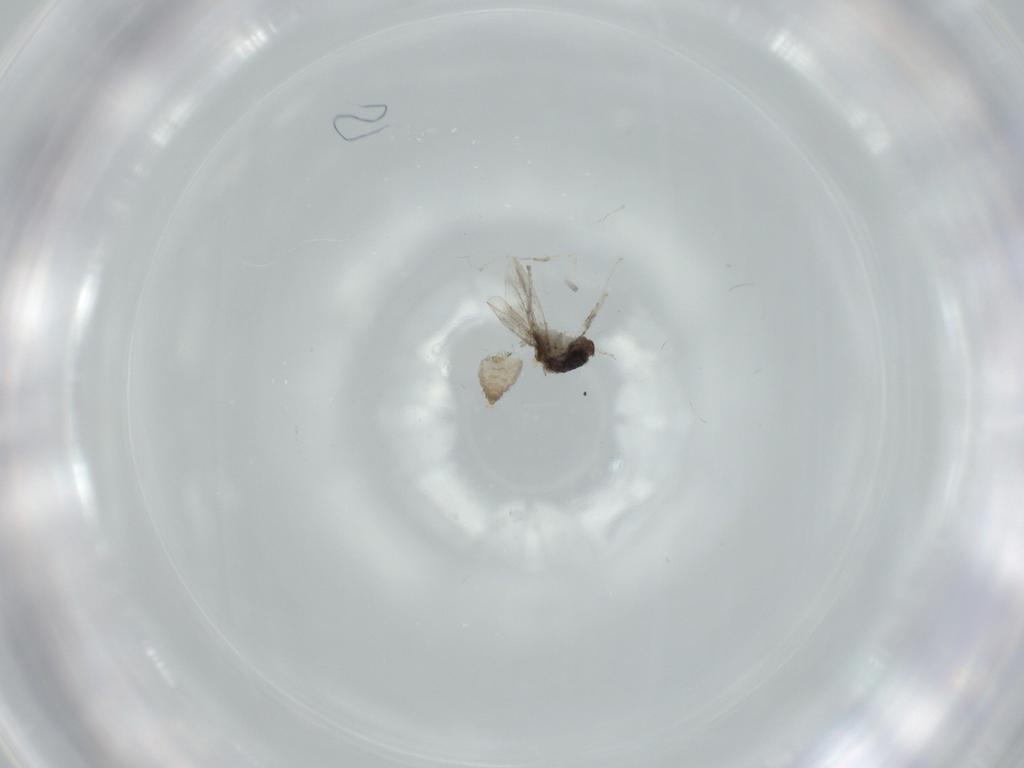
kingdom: Animalia
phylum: Arthropoda
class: Insecta
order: Diptera
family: Cecidomyiidae
